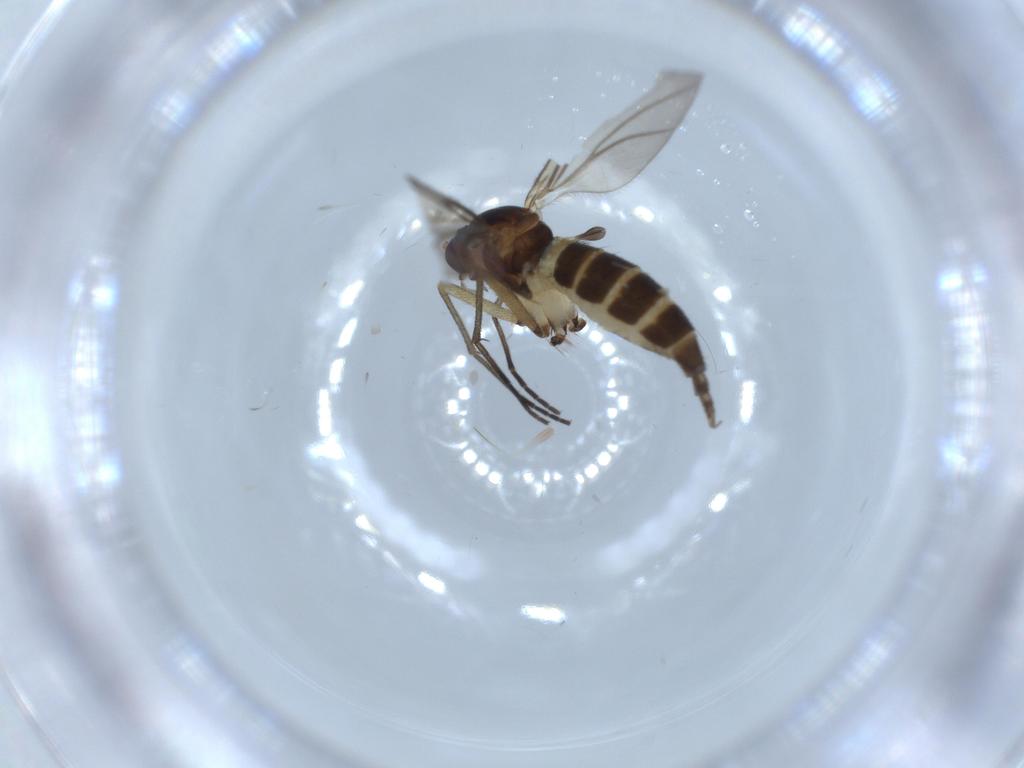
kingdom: Animalia
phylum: Arthropoda
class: Insecta
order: Diptera
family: Sciaridae
